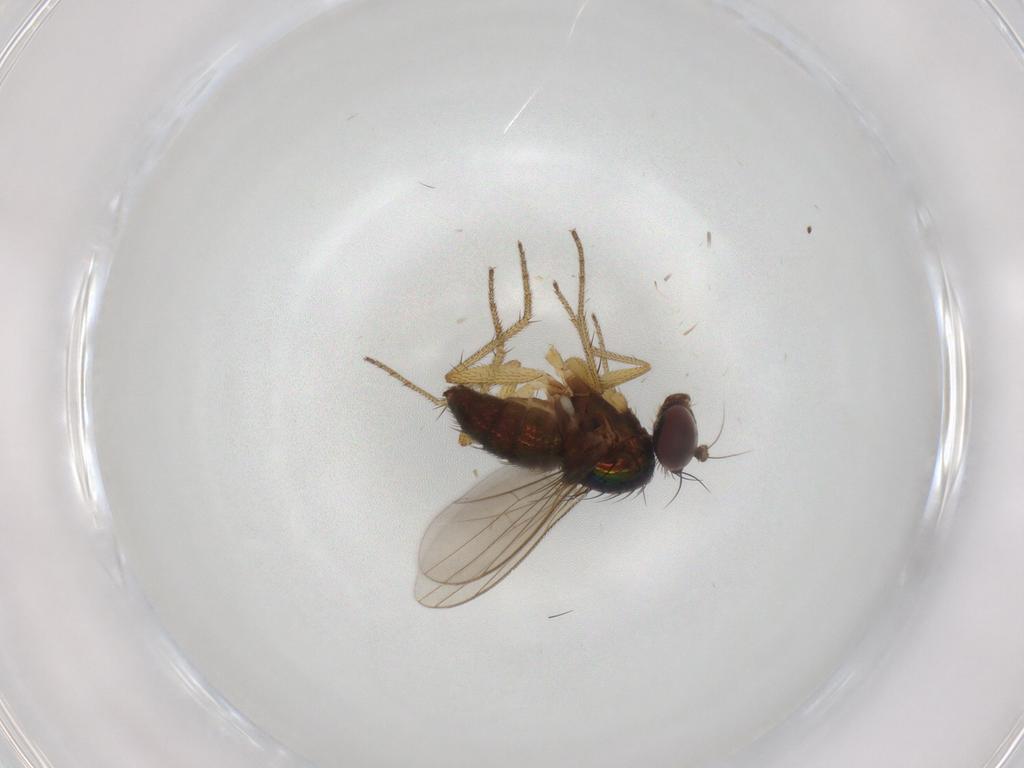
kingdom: Animalia
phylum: Arthropoda
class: Insecta
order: Diptera
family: Dolichopodidae
